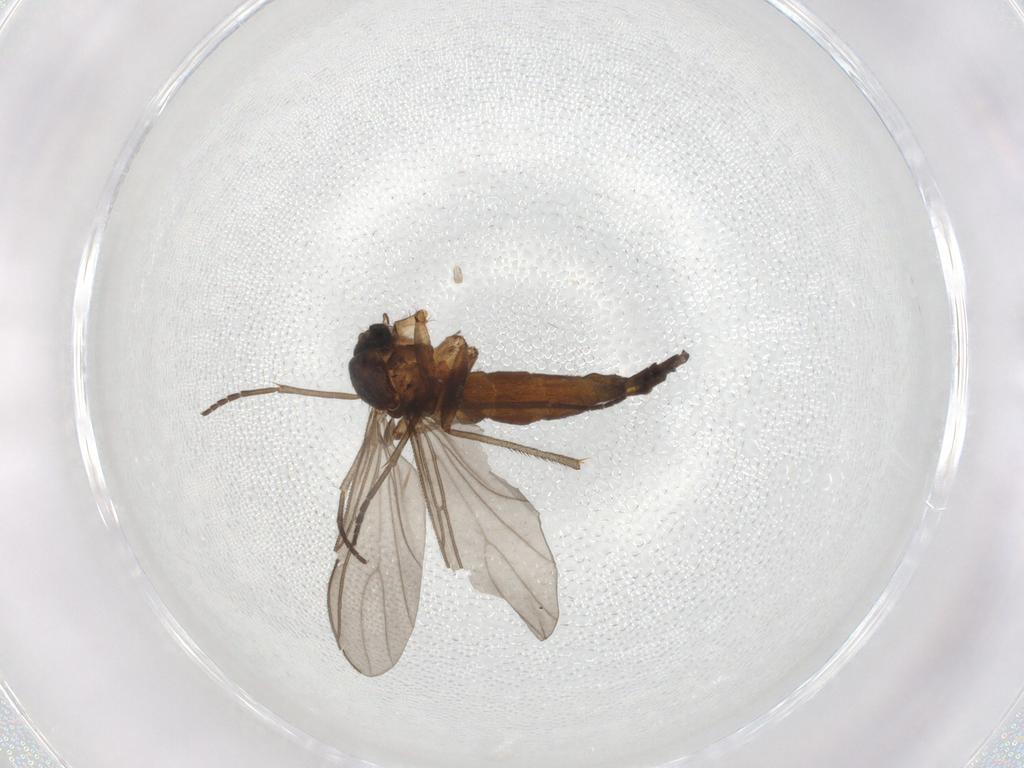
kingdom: Animalia
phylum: Arthropoda
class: Insecta
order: Diptera
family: Sciaridae
